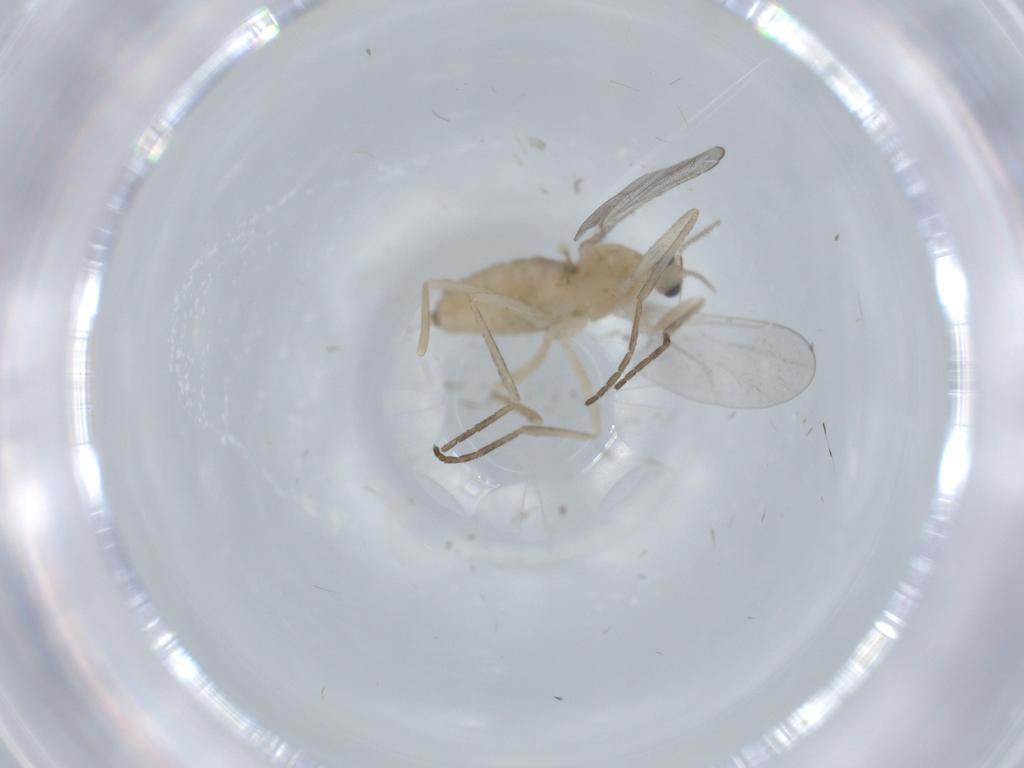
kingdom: Animalia
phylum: Arthropoda
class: Insecta
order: Diptera
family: Cecidomyiidae
